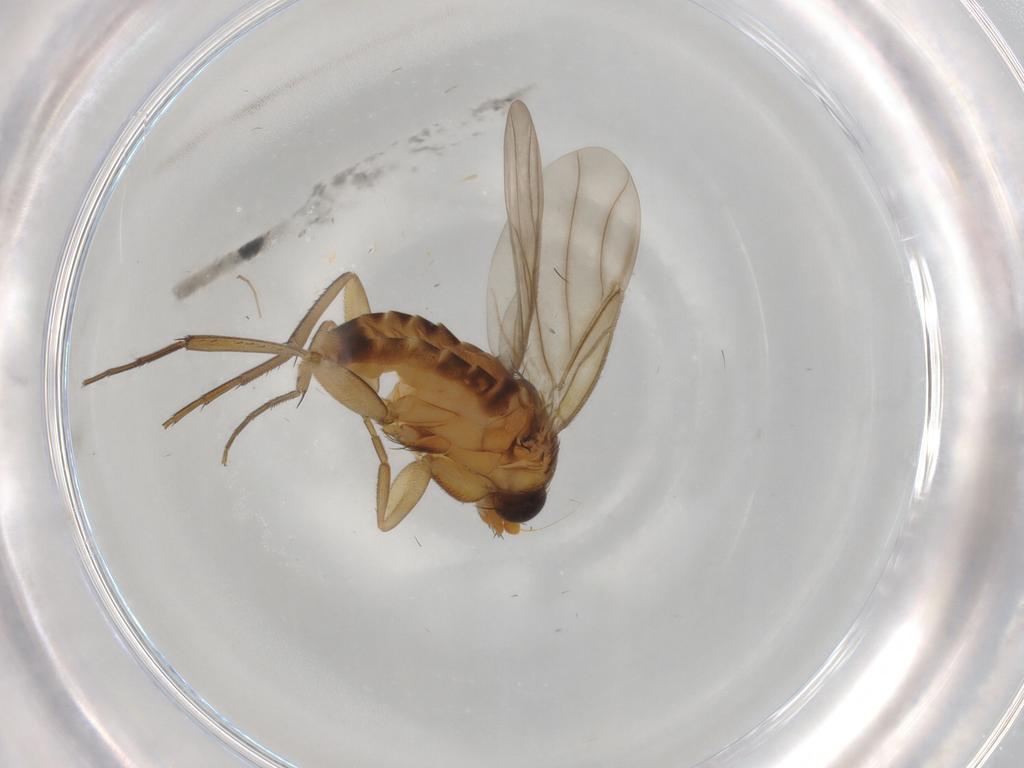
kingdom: Animalia
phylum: Arthropoda
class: Insecta
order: Diptera
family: Sciaridae
